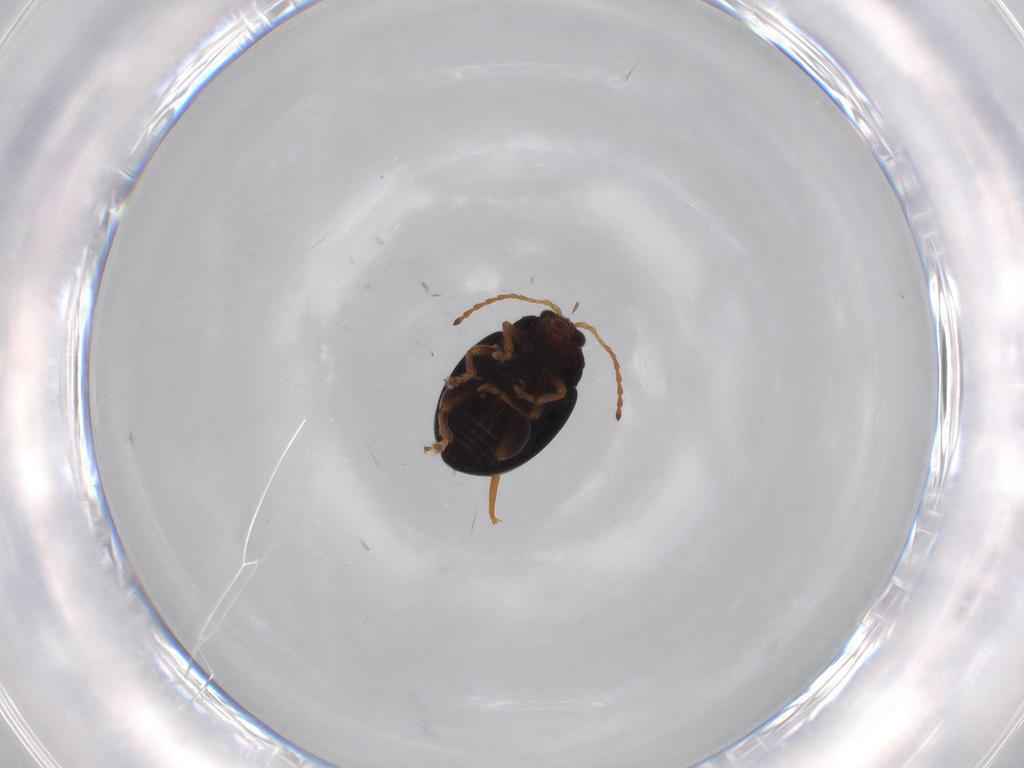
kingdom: Animalia
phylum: Arthropoda
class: Insecta
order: Coleoptera
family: Chrysomelidae
